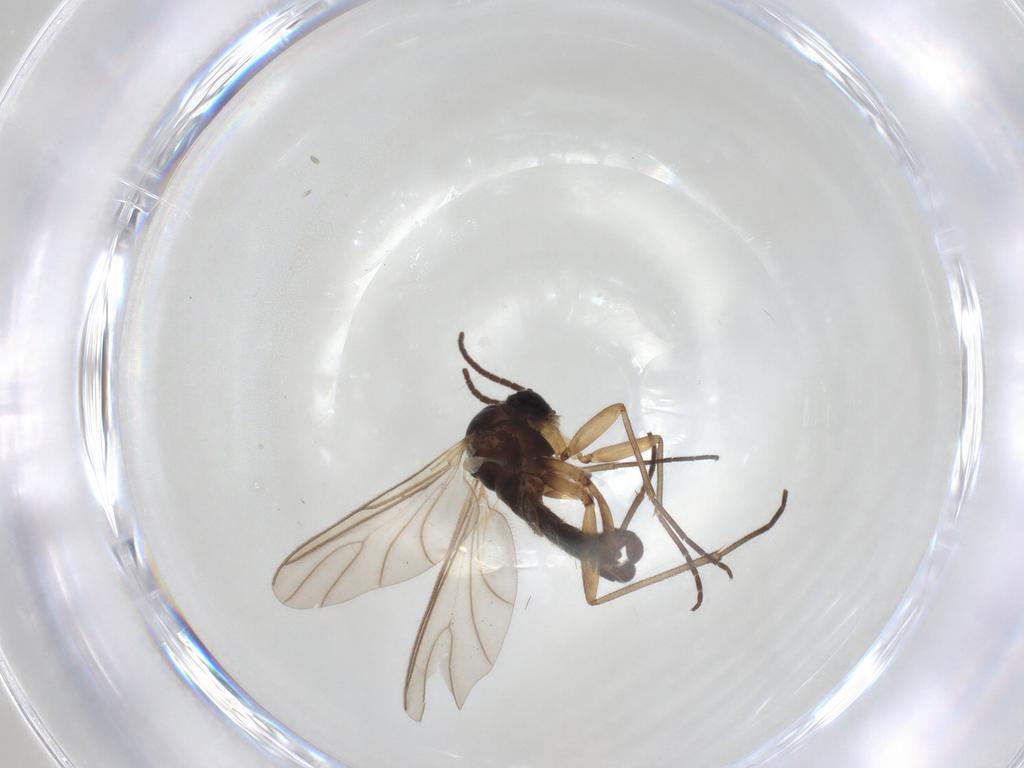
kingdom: Animalia
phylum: Arthropoda
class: Insecta
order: Diptera
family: Sciaridae
